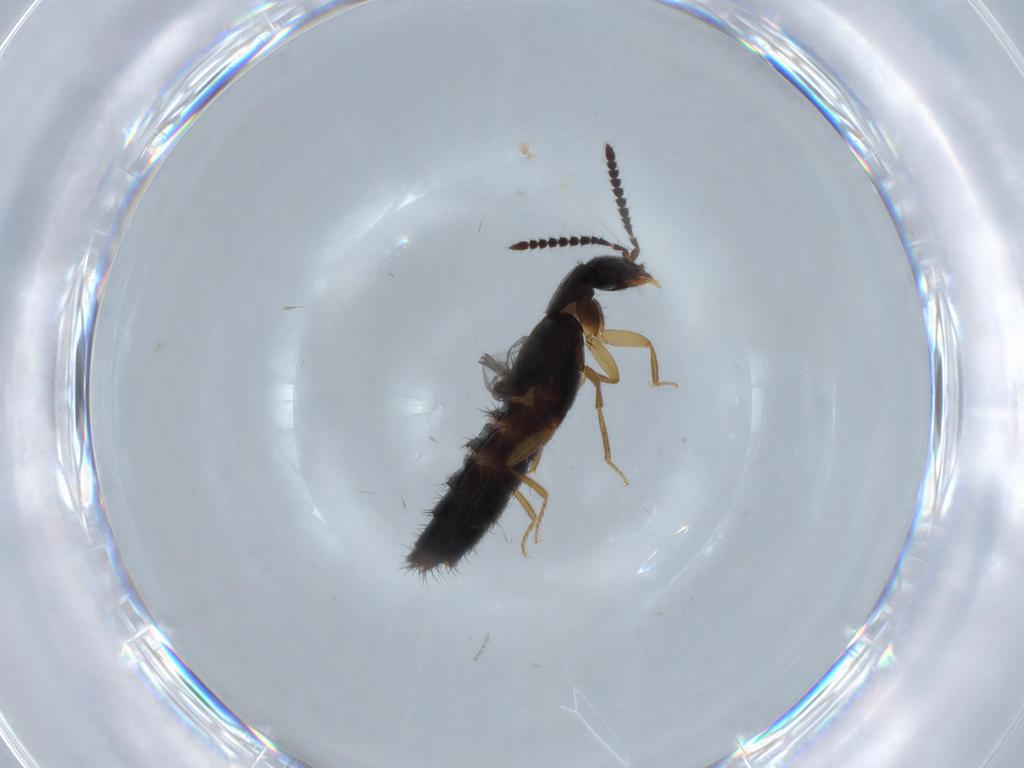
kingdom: Animalia
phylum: Arthropoda
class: Insecta
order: Coleoptera
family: Staphylinidae
